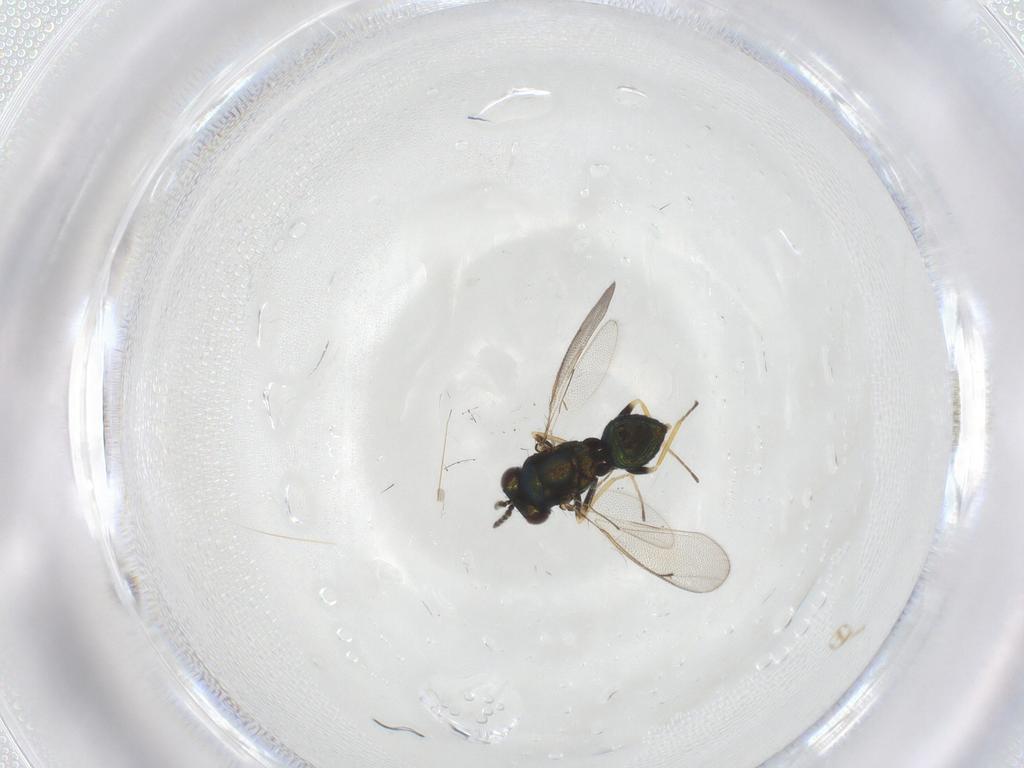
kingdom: Animalia
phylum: Arthropoda
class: Insecta
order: Hymenoptera
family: Eulophidae
